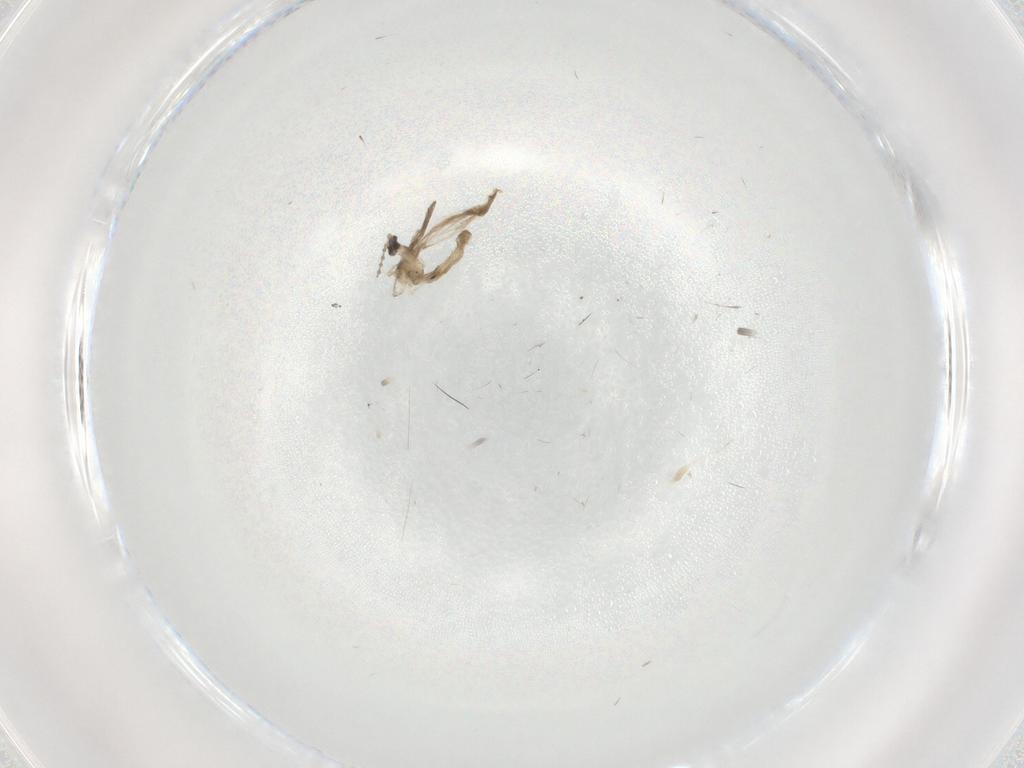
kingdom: Animalia
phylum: Arthropoda
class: Insecta
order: Diptera
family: Cecidomyiidae
